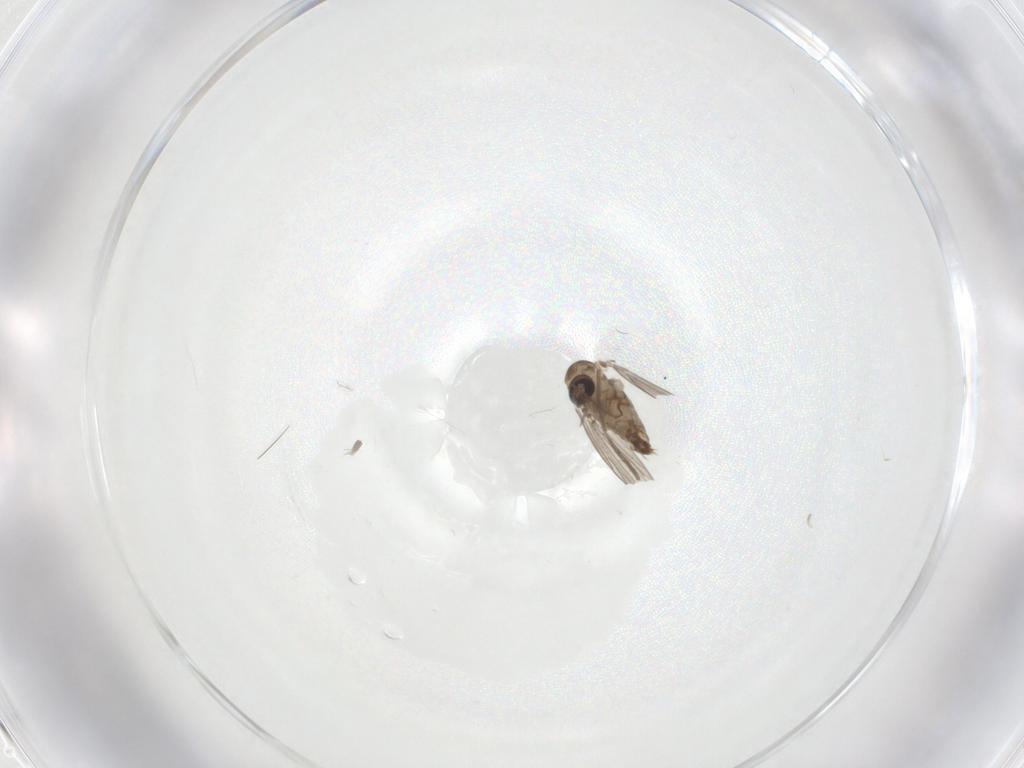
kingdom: Animalia
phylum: Arthropoda
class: Insecta
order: Diptera
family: Psychodidae
